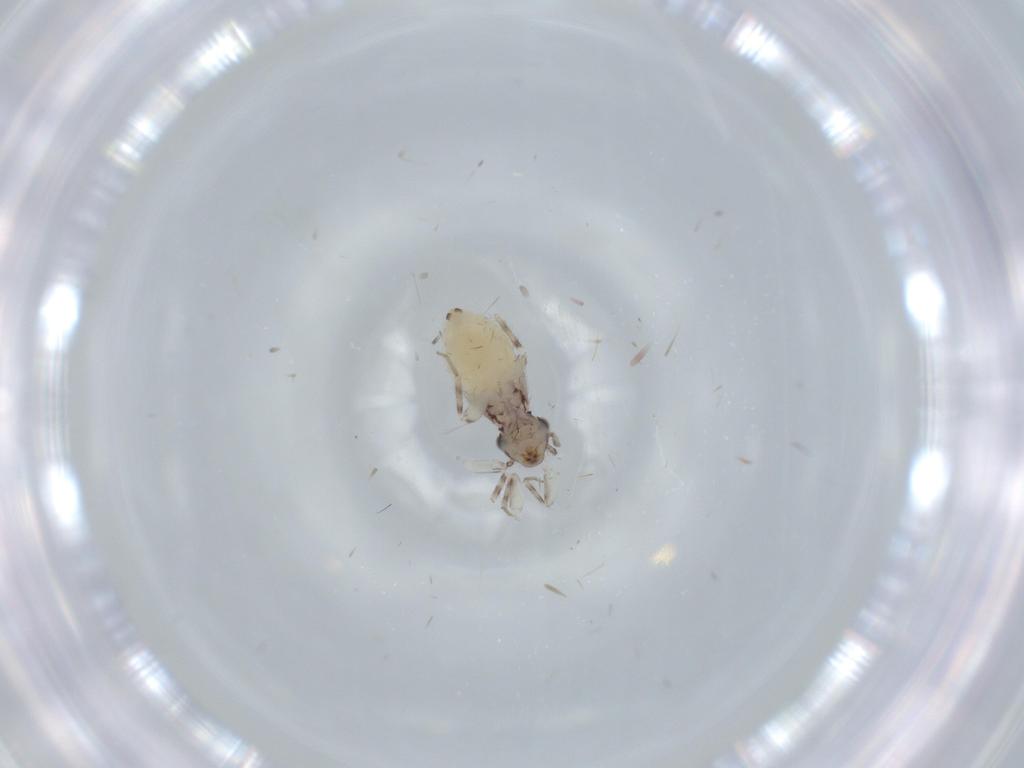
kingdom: Animalia
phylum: Arthropoda
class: Insecta
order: Psocodea
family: Lepidopsocidae
